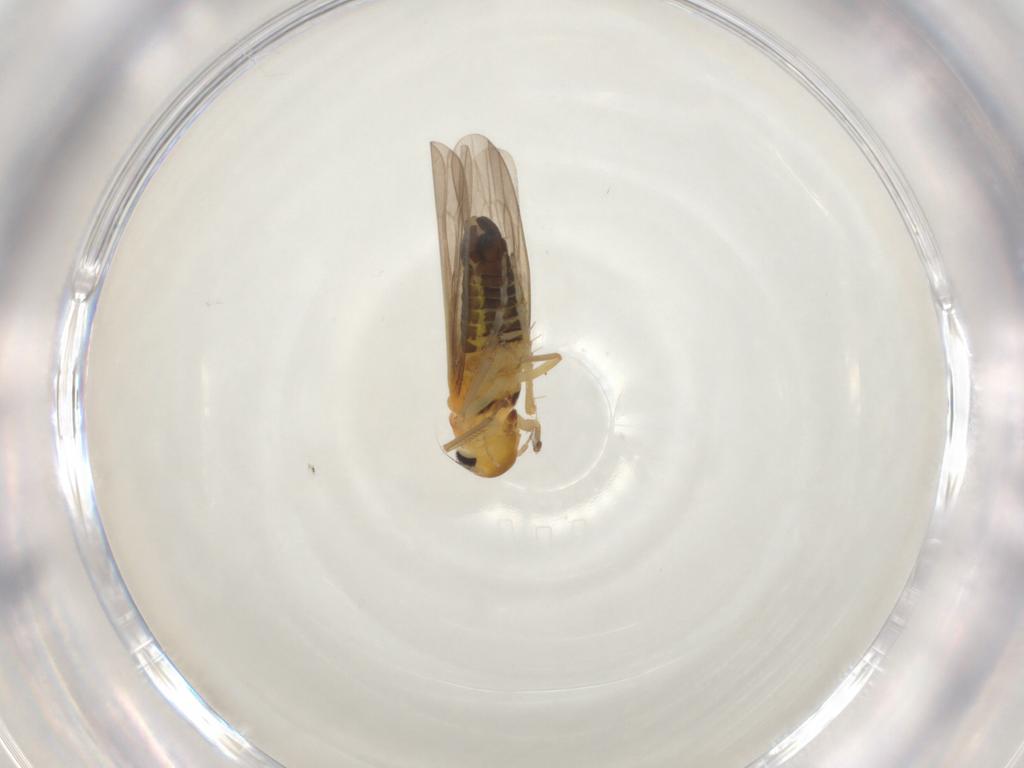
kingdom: Animalia
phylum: Arthropoda
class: Insecta
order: Hemiptera
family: Cicadellidae
